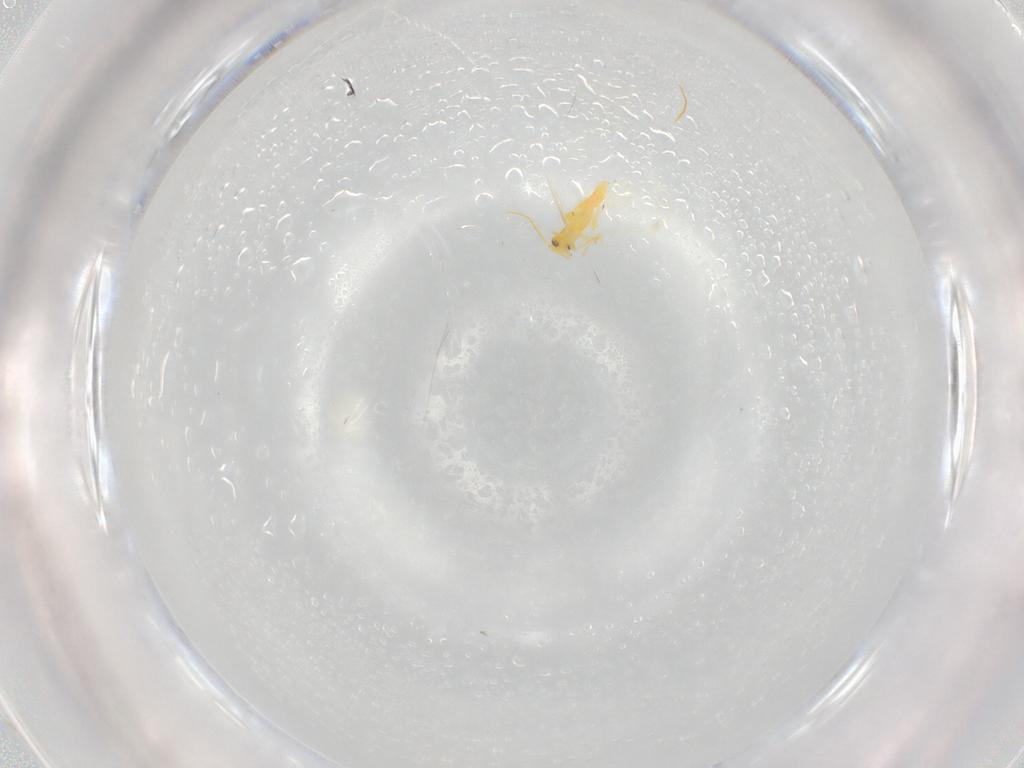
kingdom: Animalia
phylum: Arthropoda
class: Insecta
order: Hemiptera
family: Aleyrodidae
